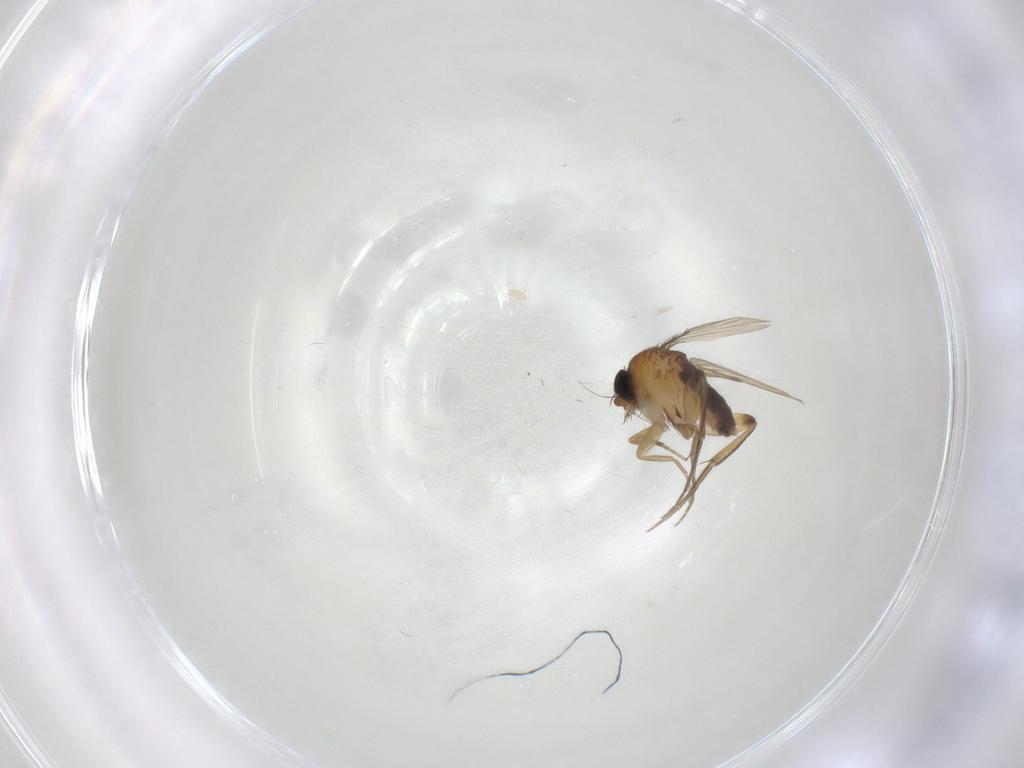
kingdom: Animalia
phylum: Arthropoda
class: Insecta
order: Diptera
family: Phoridae
